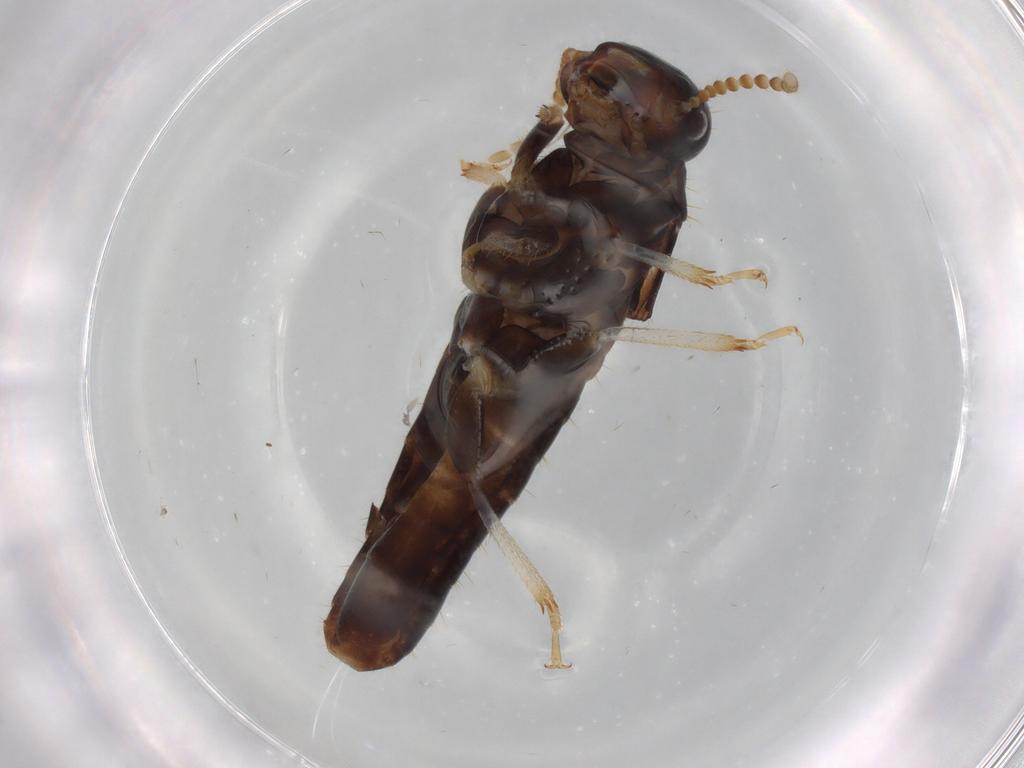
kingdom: Animalia
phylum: Arthropoda
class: Insecta
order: Blattodea
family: Kalotermitidae
